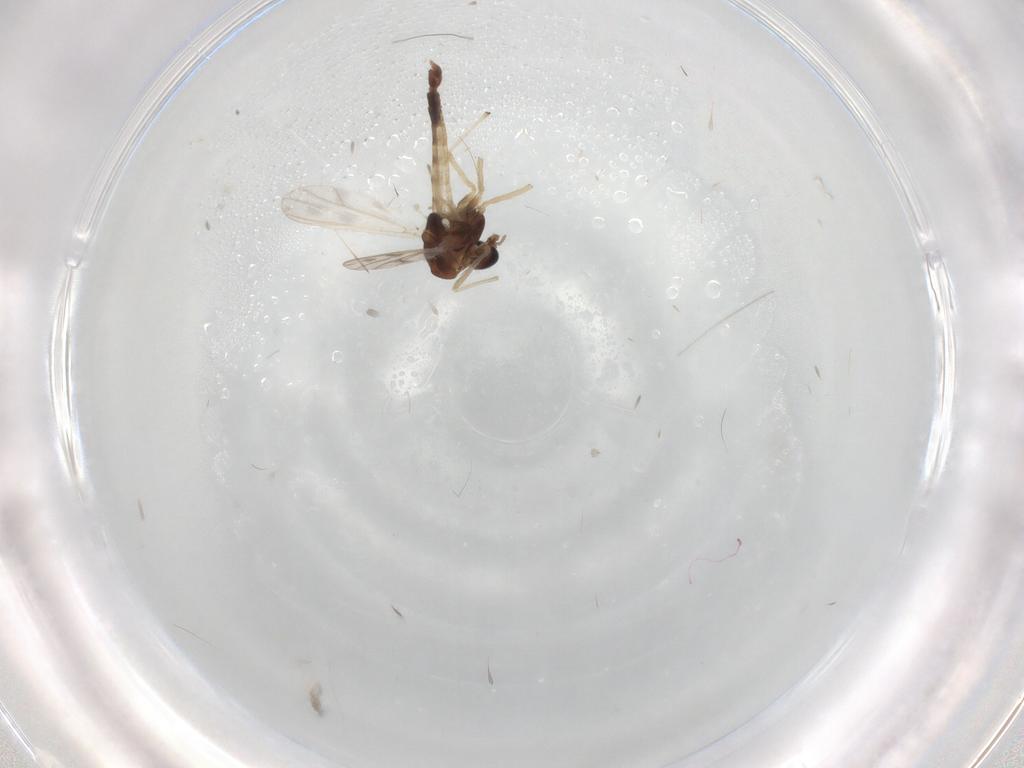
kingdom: Animalia
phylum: Arthropoda
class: Insecta
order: Diptera
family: Chironomidae
